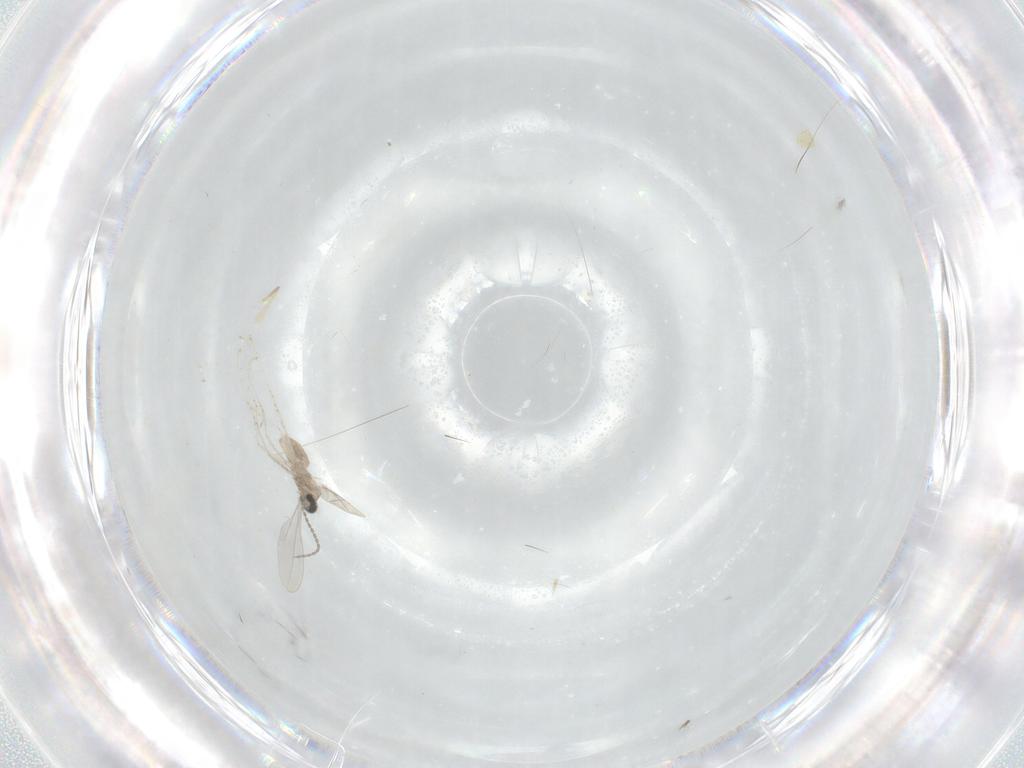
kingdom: Animalia
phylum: Arthropoda
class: Insecta
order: Diptera
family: Cecidomyiidae
